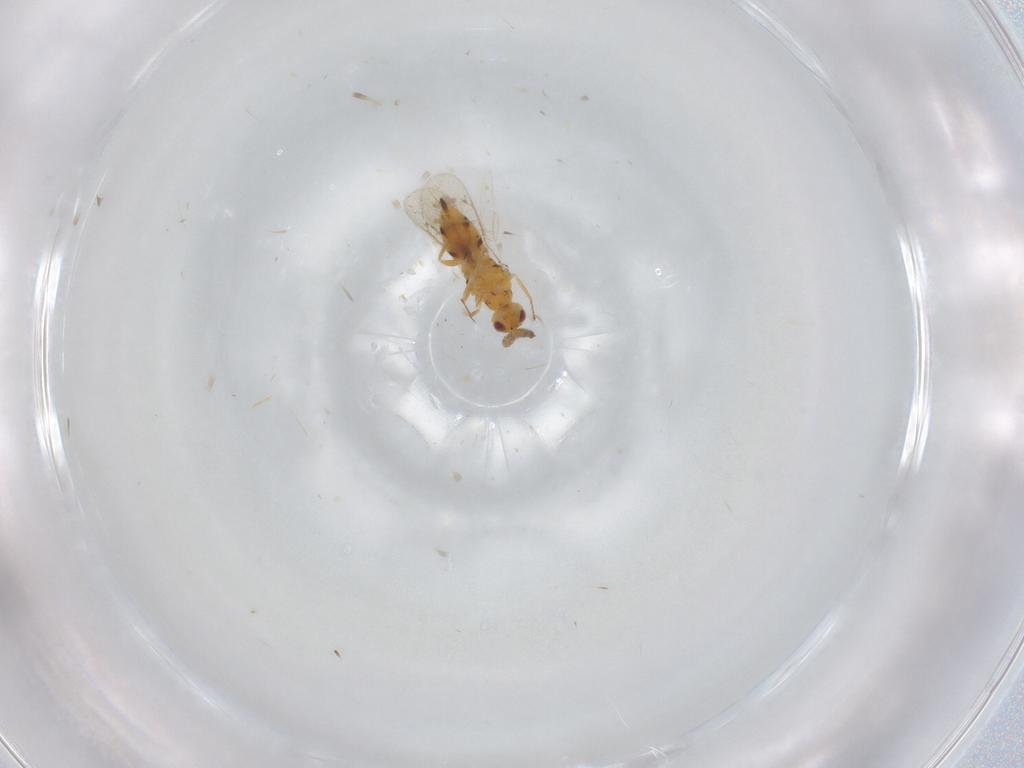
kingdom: Animalia
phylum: Arthropoda
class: Insecta
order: Hymenoptera
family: Eulophidae
